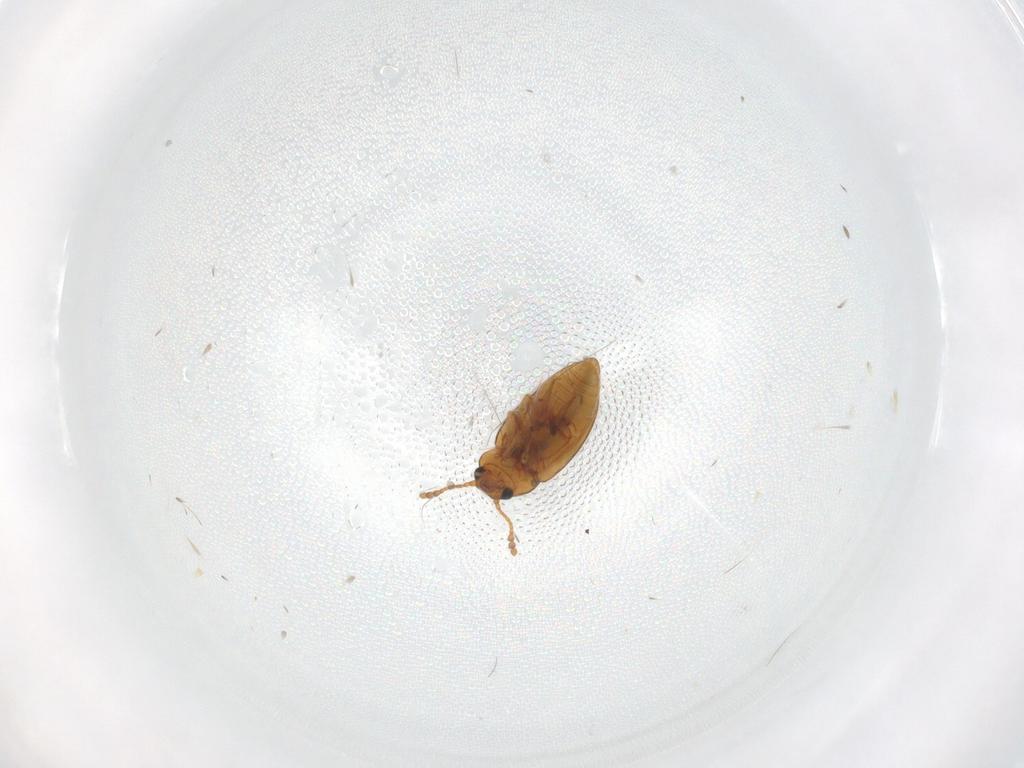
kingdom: Animalia
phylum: Arthropoda
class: Insecta
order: Coleoptera
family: Erotylidae
